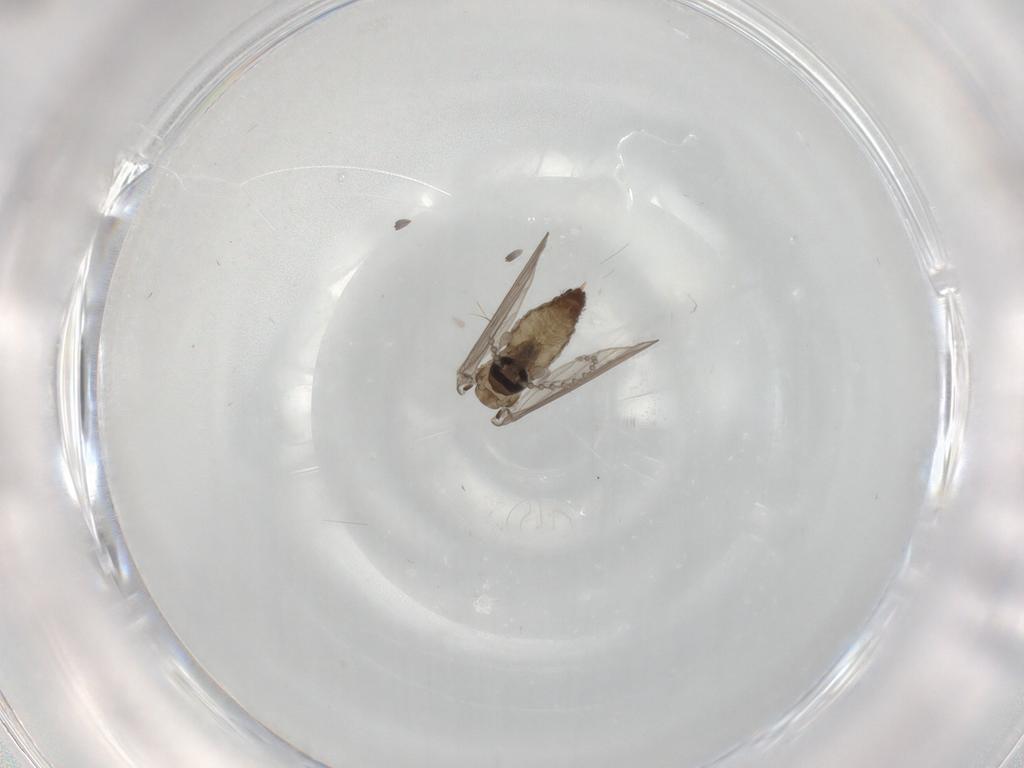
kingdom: Animalia
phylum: Arthropoda
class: Insecta
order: Diptera
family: Psychodidae
